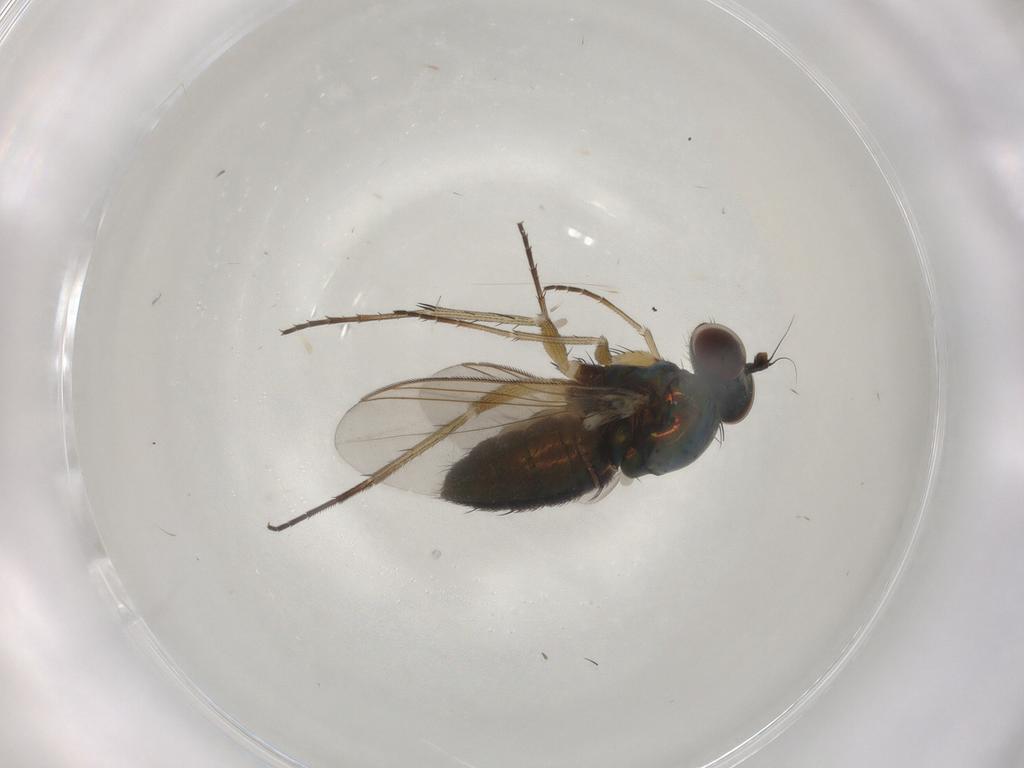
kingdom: Animalia
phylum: Arthropoda
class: Insecta
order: Diptera
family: Dolichopodidae
